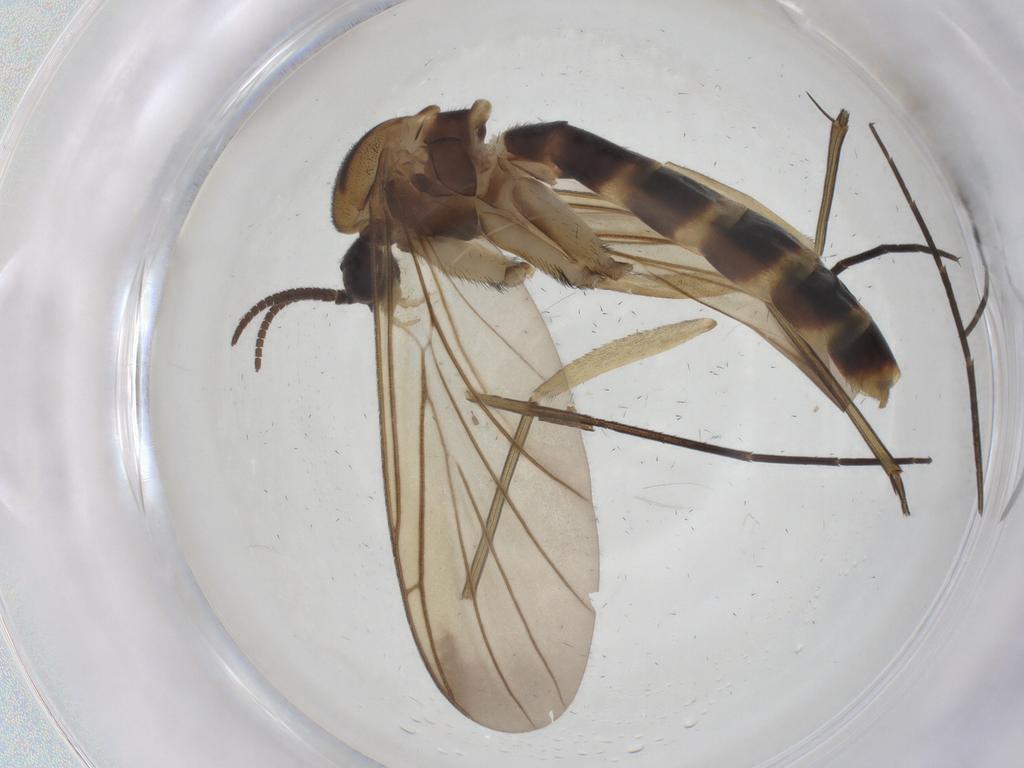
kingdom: Animalia
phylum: Arthropoda
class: Insecta
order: Diptera
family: Keroplatidae
